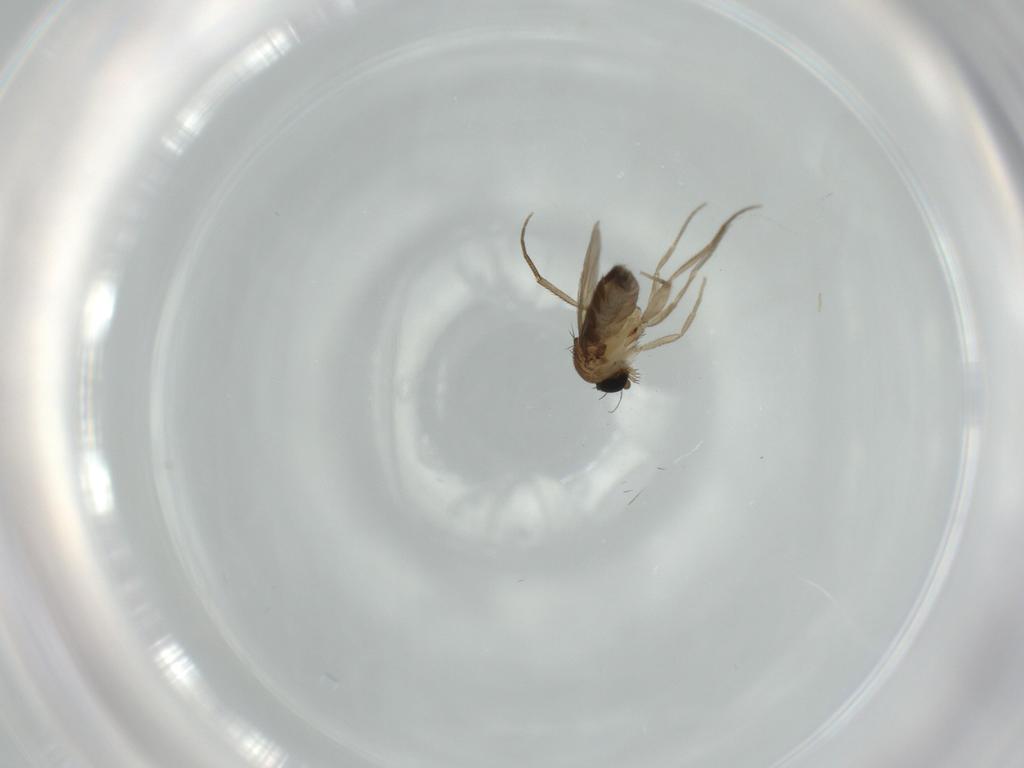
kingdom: Animalia
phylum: Arthropoda
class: Insecta
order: Diptera
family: Phoridae
